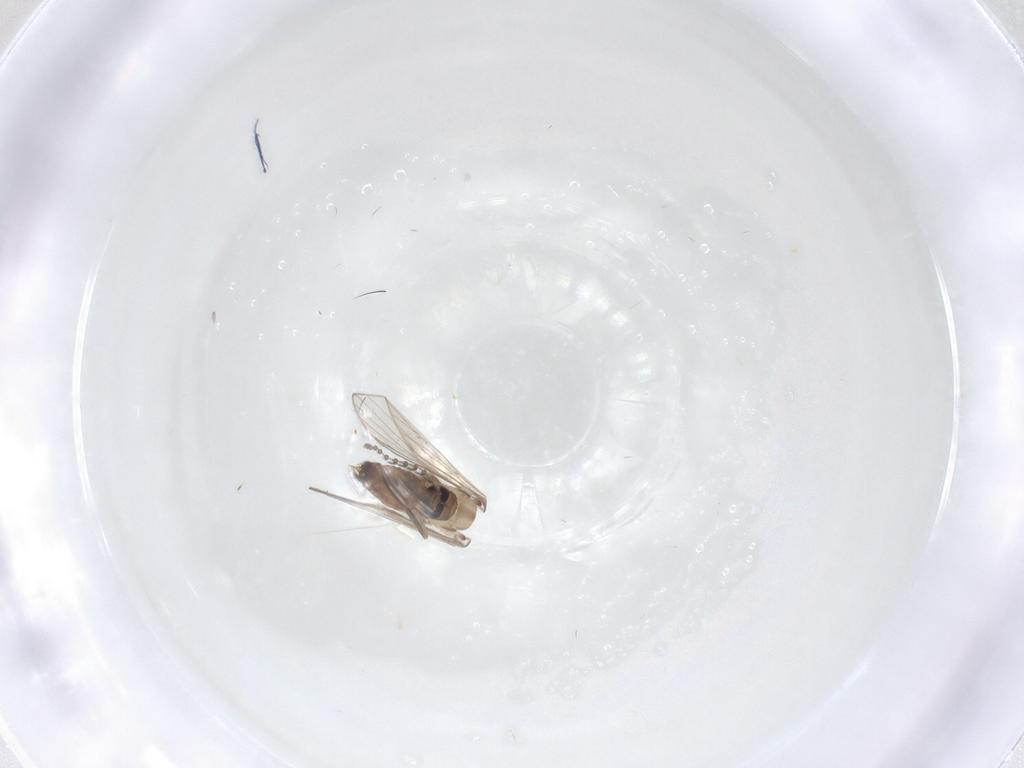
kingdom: Animalia
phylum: Arthropoda
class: Insecta
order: Diptera
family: Psychodidae
